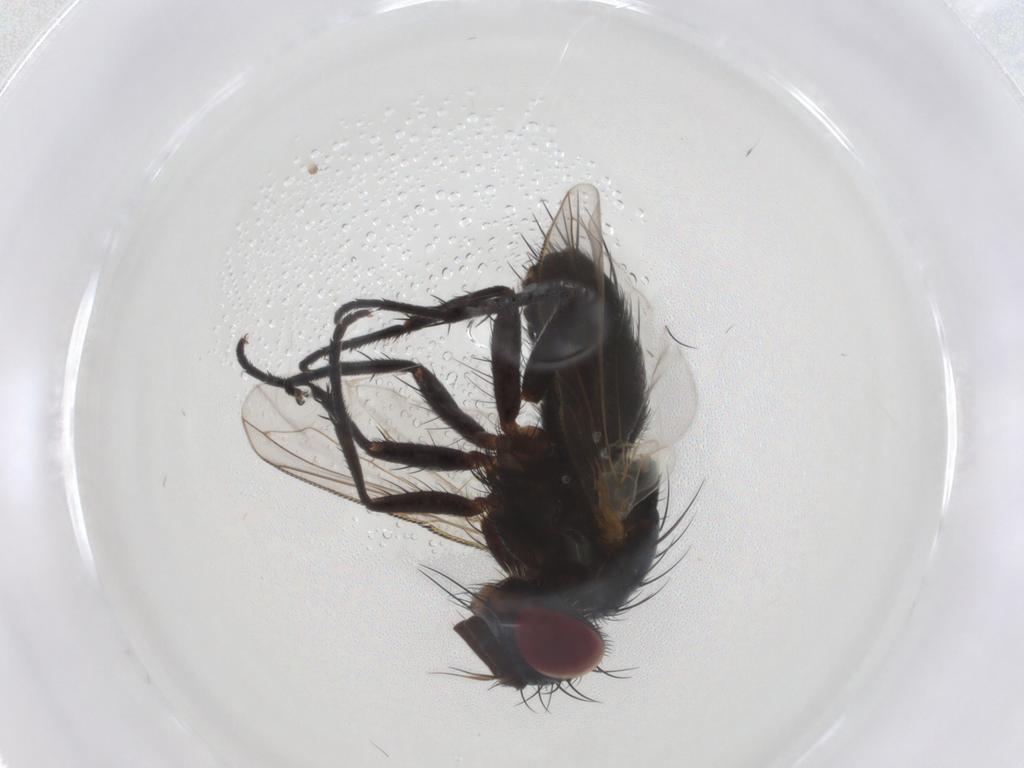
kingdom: Animalia
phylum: Arthropoda
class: Insecta
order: Diptera
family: Tachinidae
